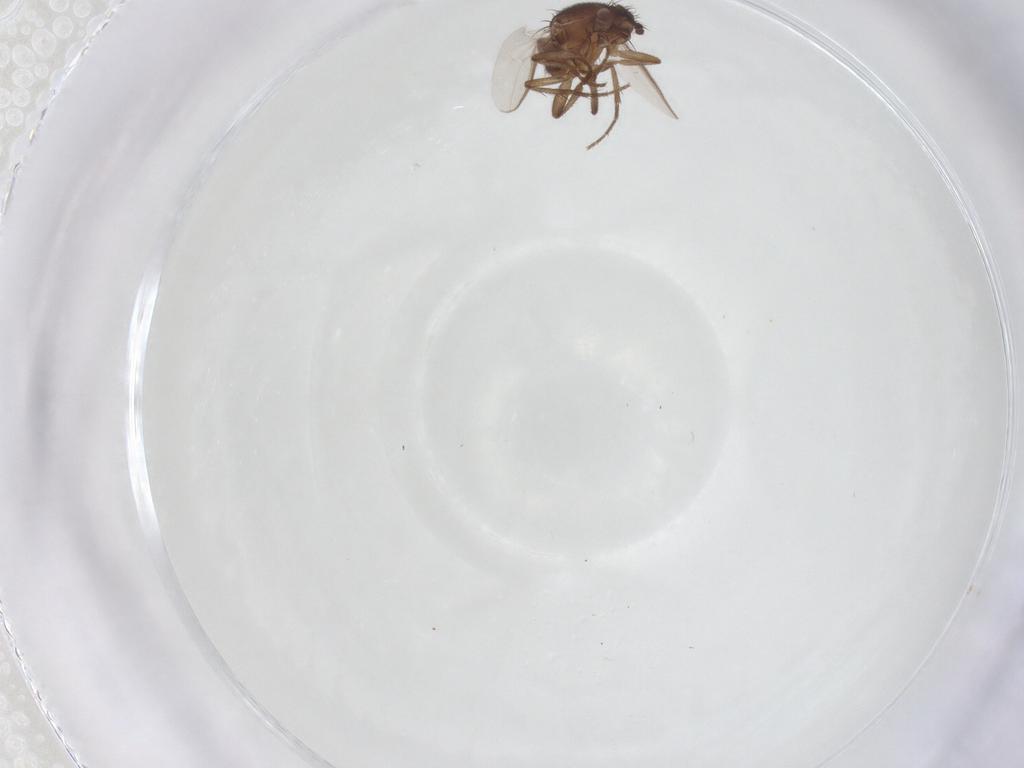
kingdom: Animalia
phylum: Arthropoda
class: Insecta
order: Diptera
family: Sphaeroceridae
